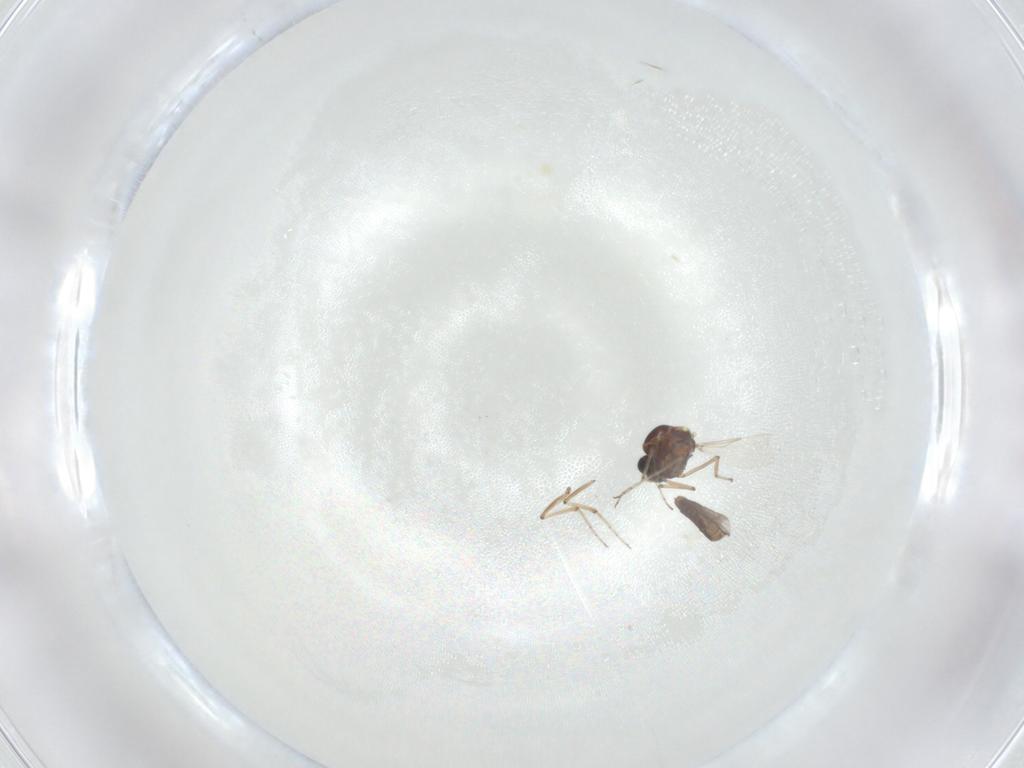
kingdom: Animalia
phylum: Arthropoda
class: Insecta
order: Diptera
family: Ceratopogonidae
